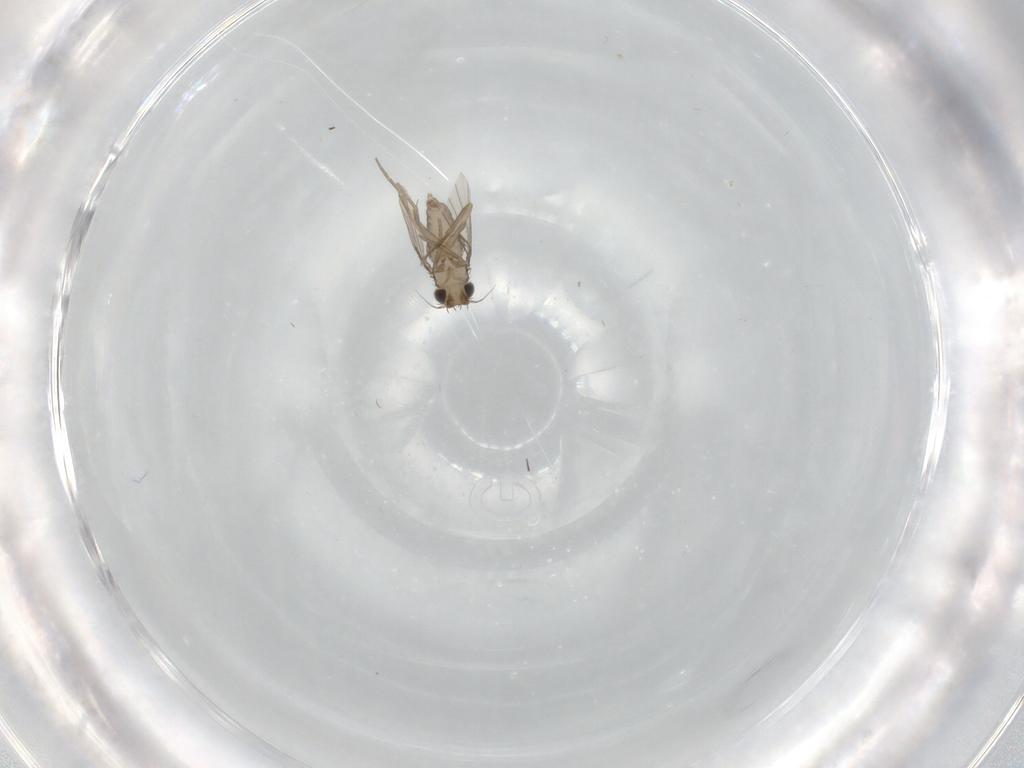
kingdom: Animalia
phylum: Arthropoda
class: Insecta
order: Diptera
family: Phoridae
